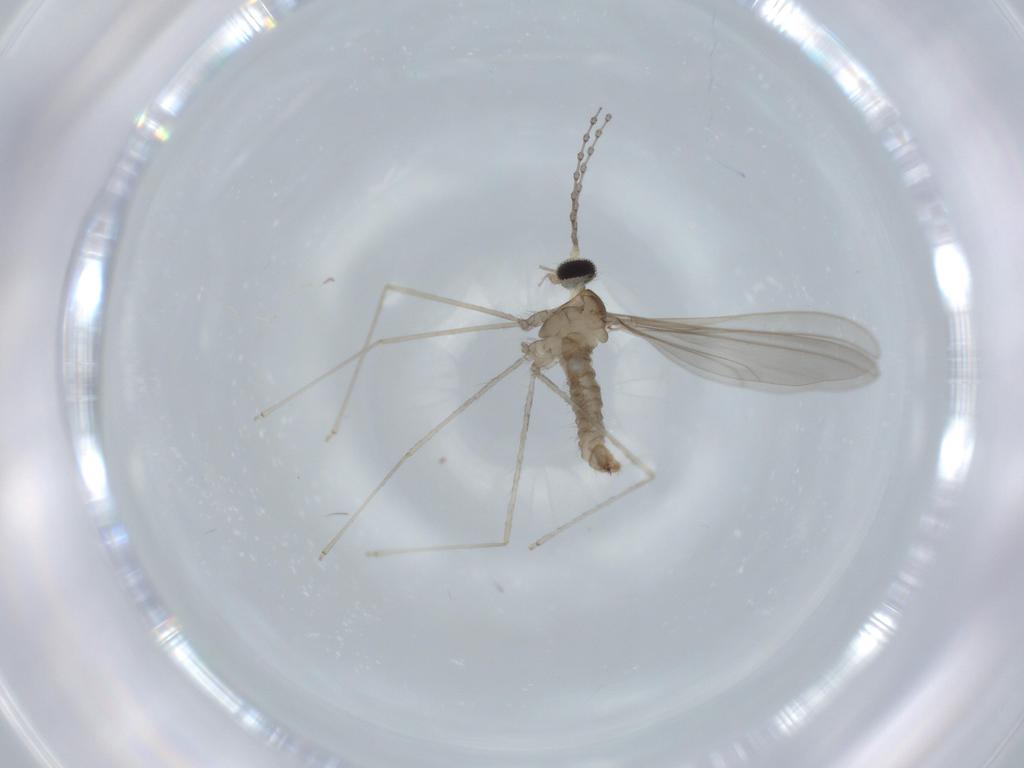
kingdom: Animalia
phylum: Arthropoda
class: Insecta
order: Diptera
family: Cecidomyiidae
